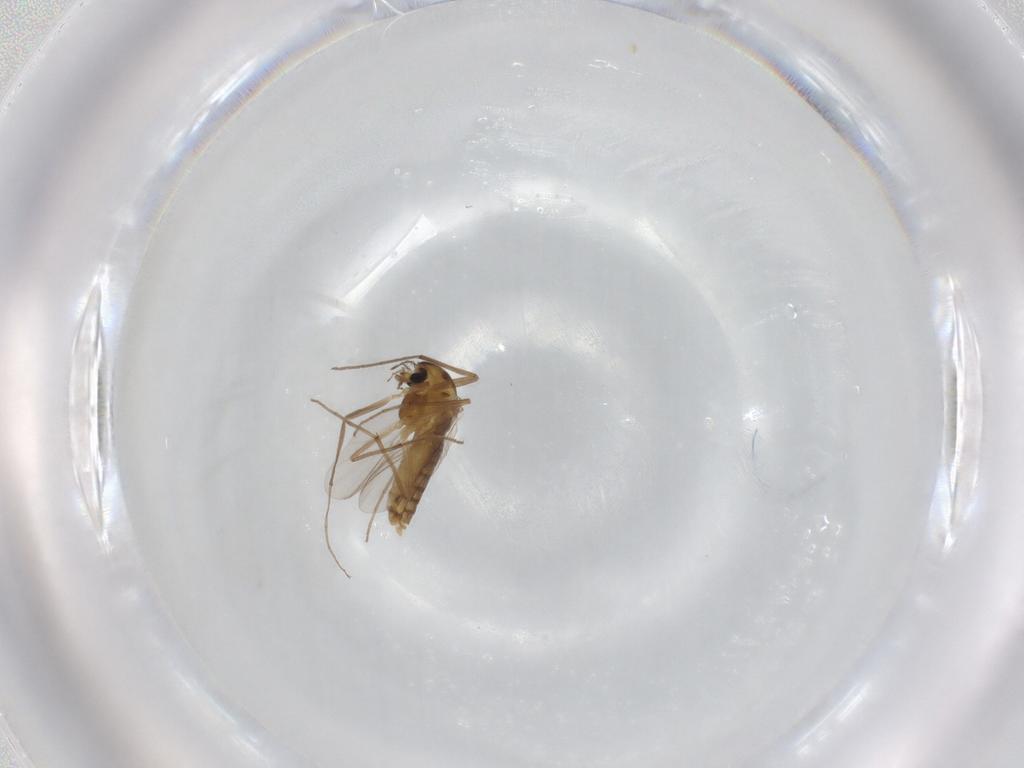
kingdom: Animalia
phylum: Arthropoda
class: Insecta
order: Diptera
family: Chironomidae
